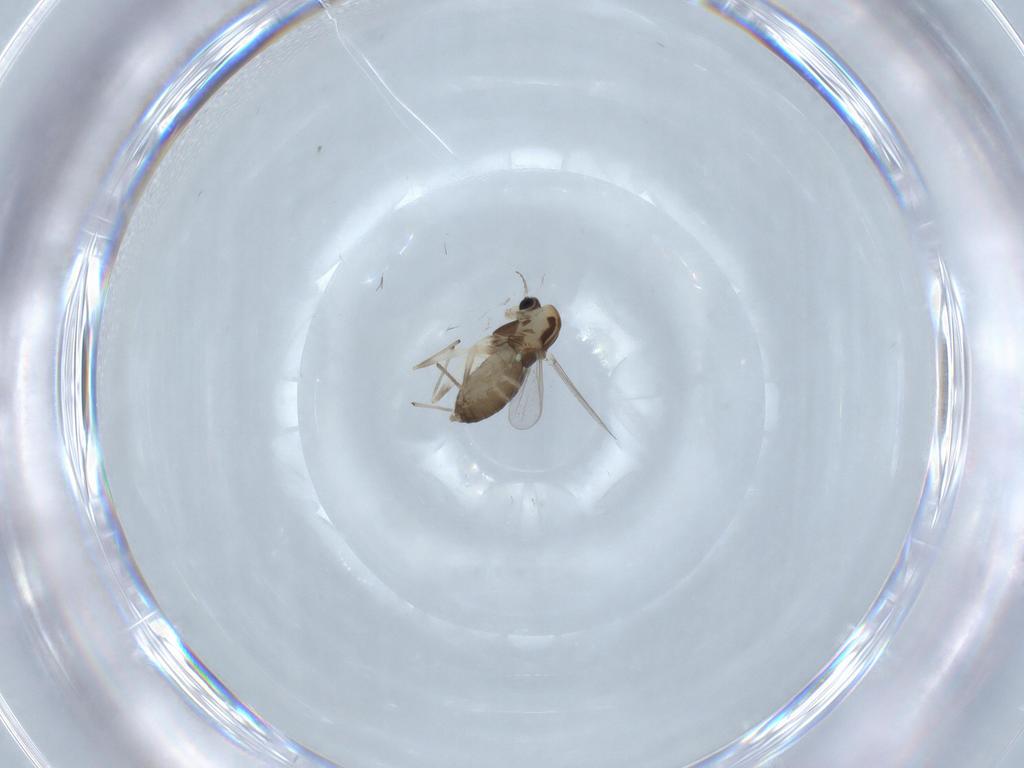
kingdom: Animalia
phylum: Arthropoda
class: Insecta
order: Diptera
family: Chironomidae
